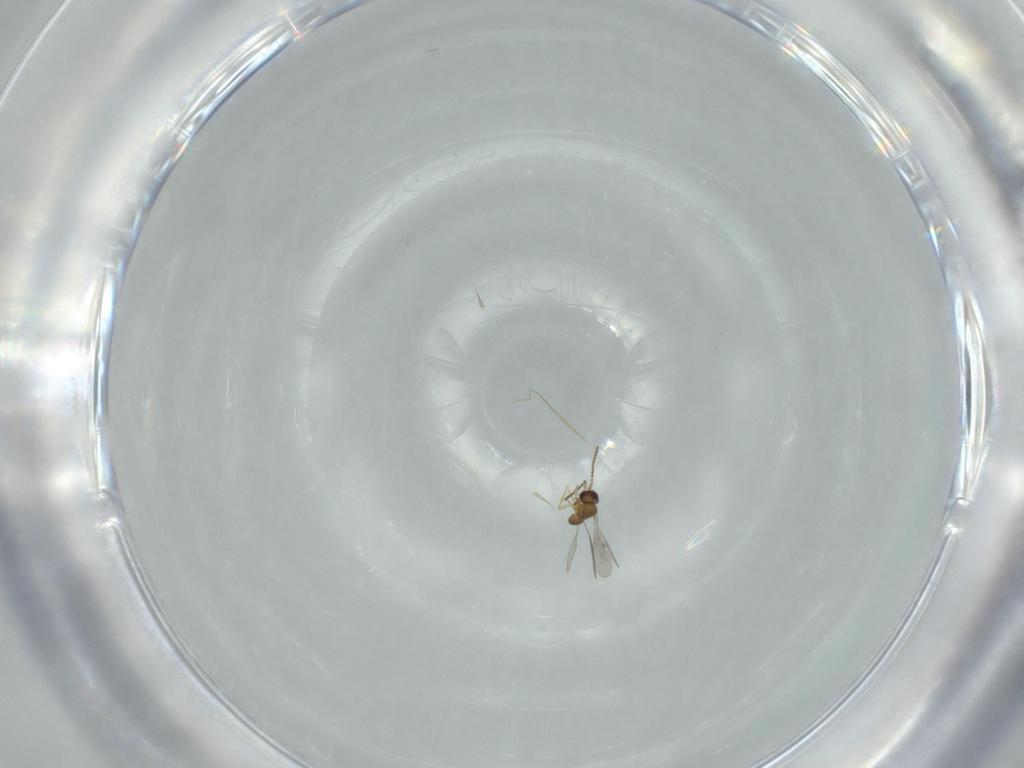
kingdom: Animalia
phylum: Arthropoda
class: Insecta
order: Hymenoptera
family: Ceraphronidae
